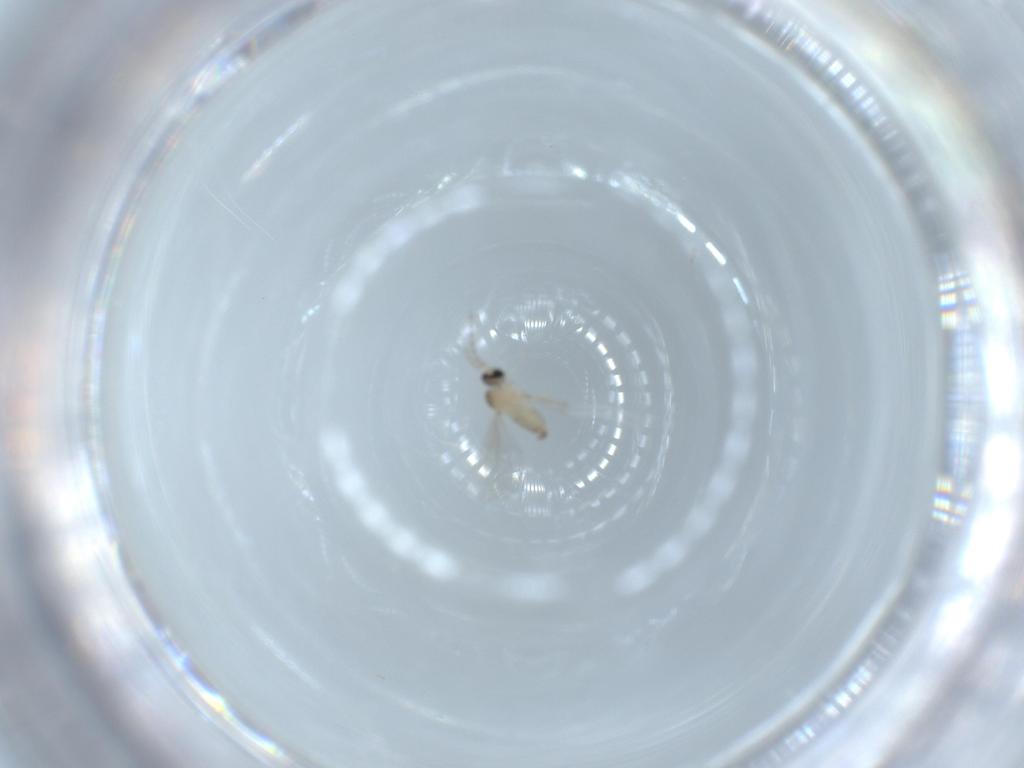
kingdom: Animalia
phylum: Arthropoda
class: Insecta
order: Diptera
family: Cecidomyiidae
